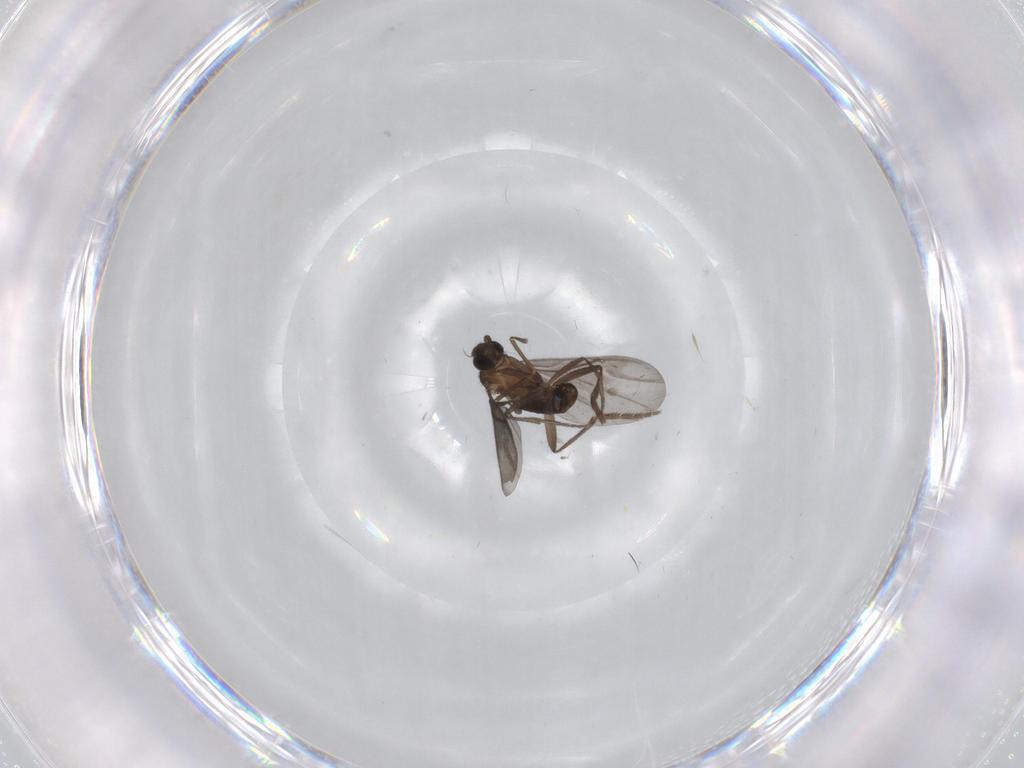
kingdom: Animalia
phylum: Arthropoda
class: Insecta
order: Diptera
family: Phoridae
